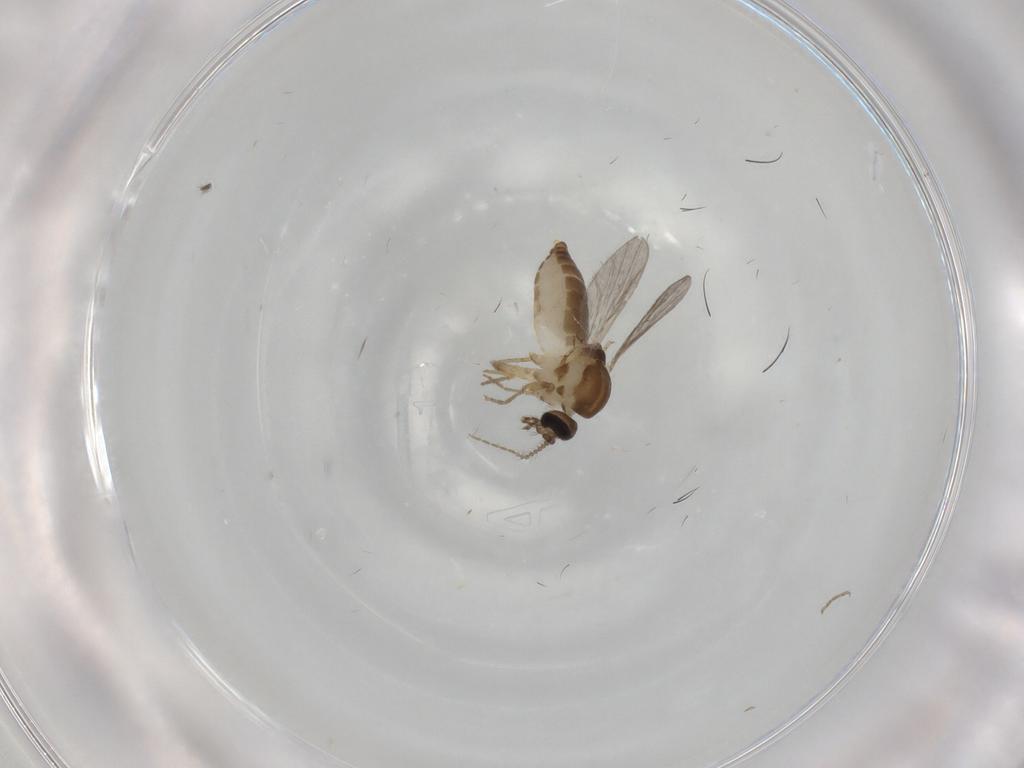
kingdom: Animalia
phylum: Arthropoda
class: Insecta
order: Diptera
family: Ceratopogonidae
